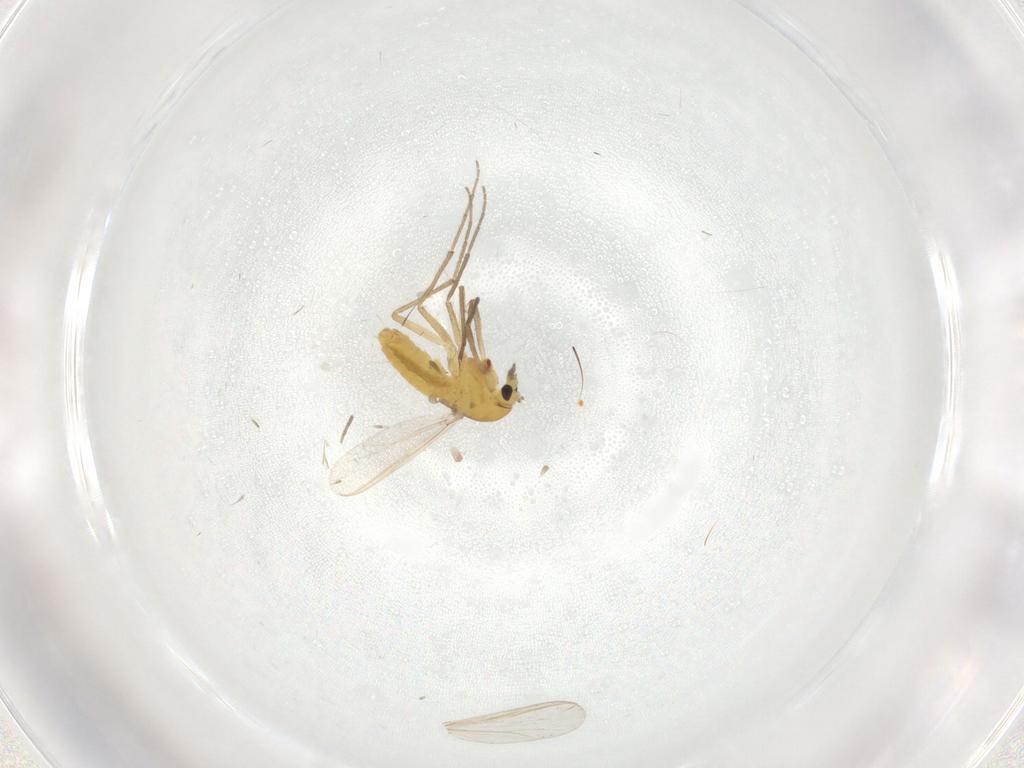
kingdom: Animalia
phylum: Arthropoda
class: Insecta
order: Diptera
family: Chironomidae
